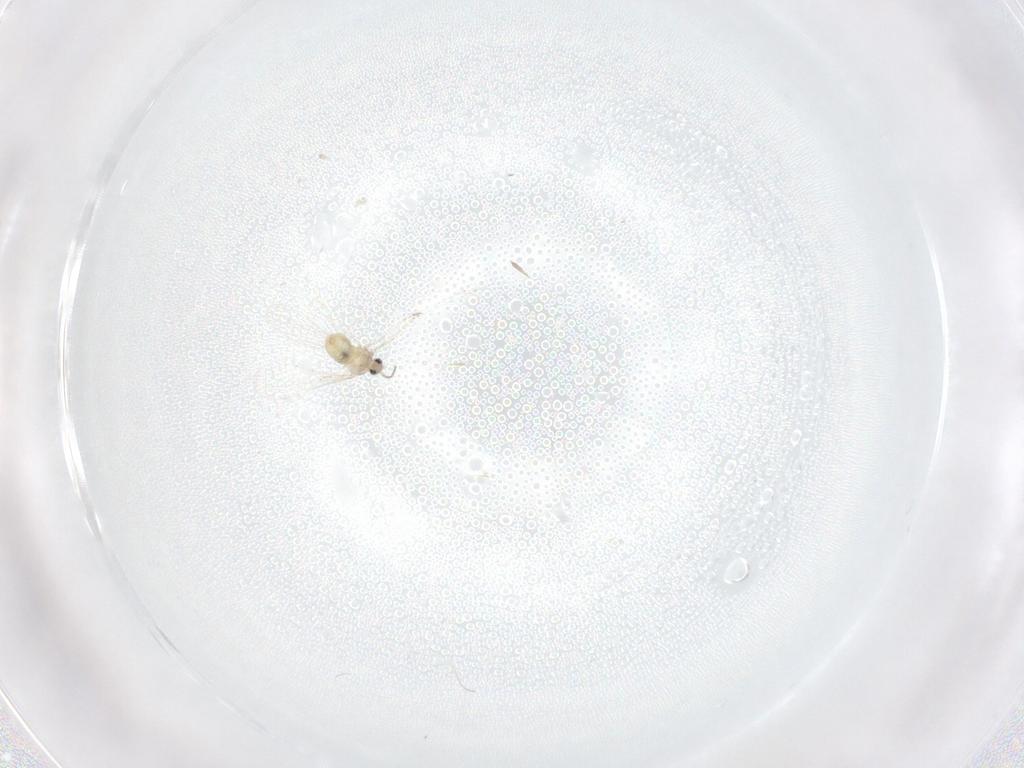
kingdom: Animalia
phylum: Arthropoda
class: Insecta
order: Diptera
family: Cecidomyiidae
